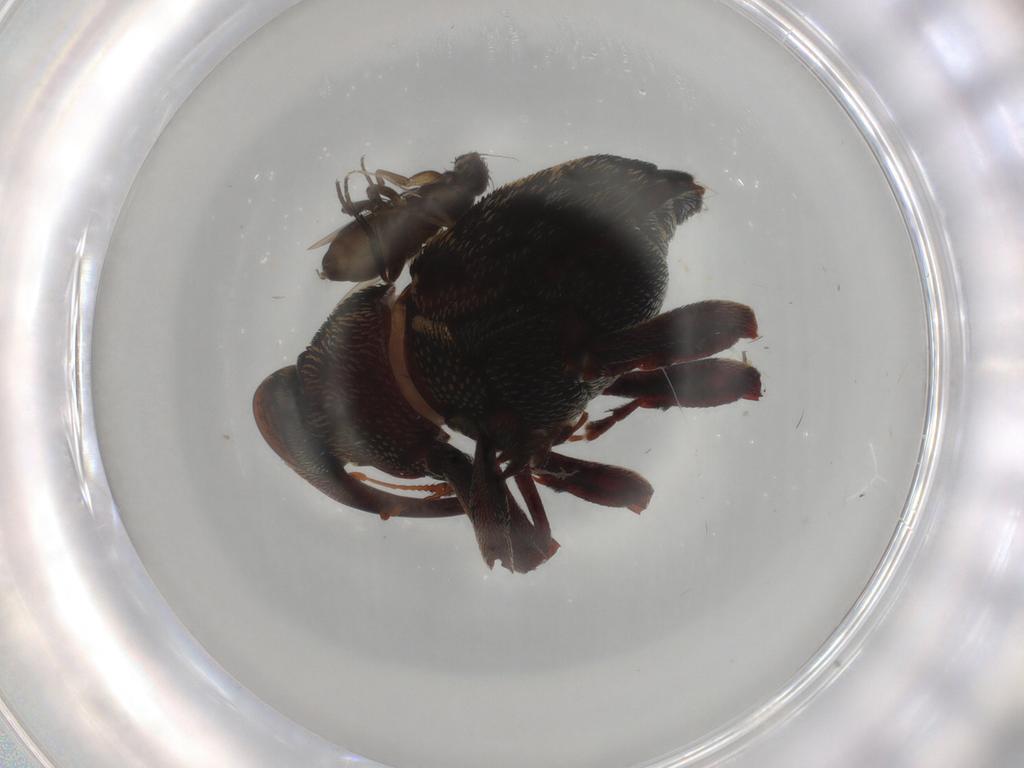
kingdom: Animalia
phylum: Arthropoda
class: Insecta
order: Coleoptera
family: Curculionidae
